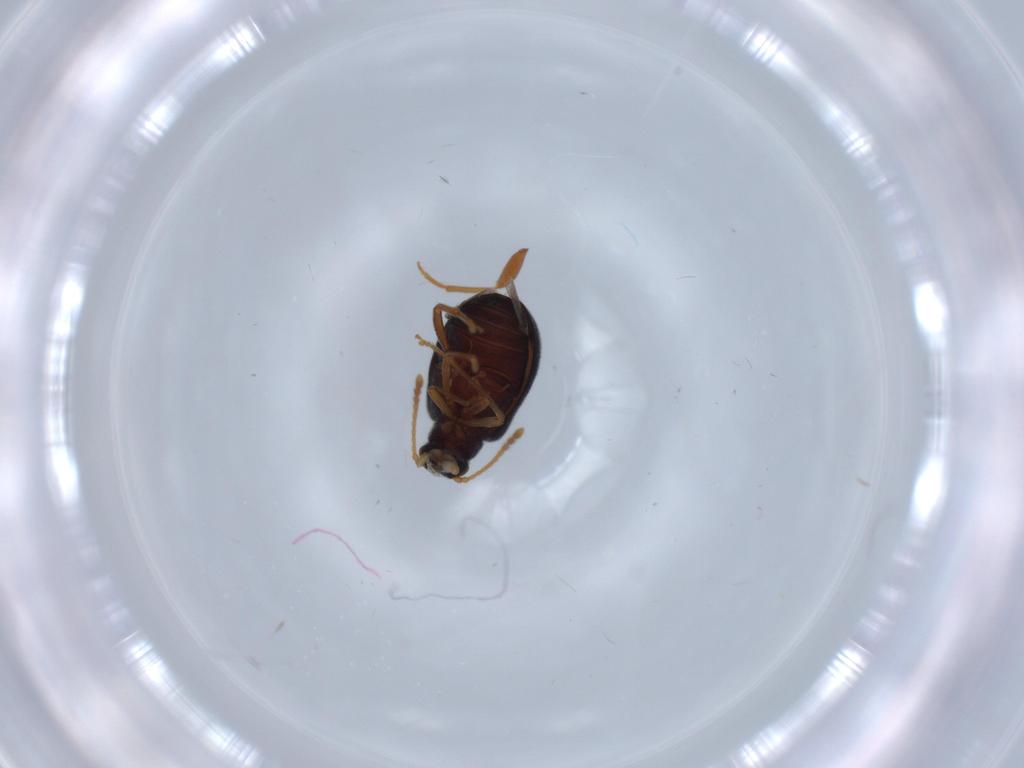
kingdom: Animalia
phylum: Arthropoda
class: Insecta
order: Coleoptera
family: Aderidae
